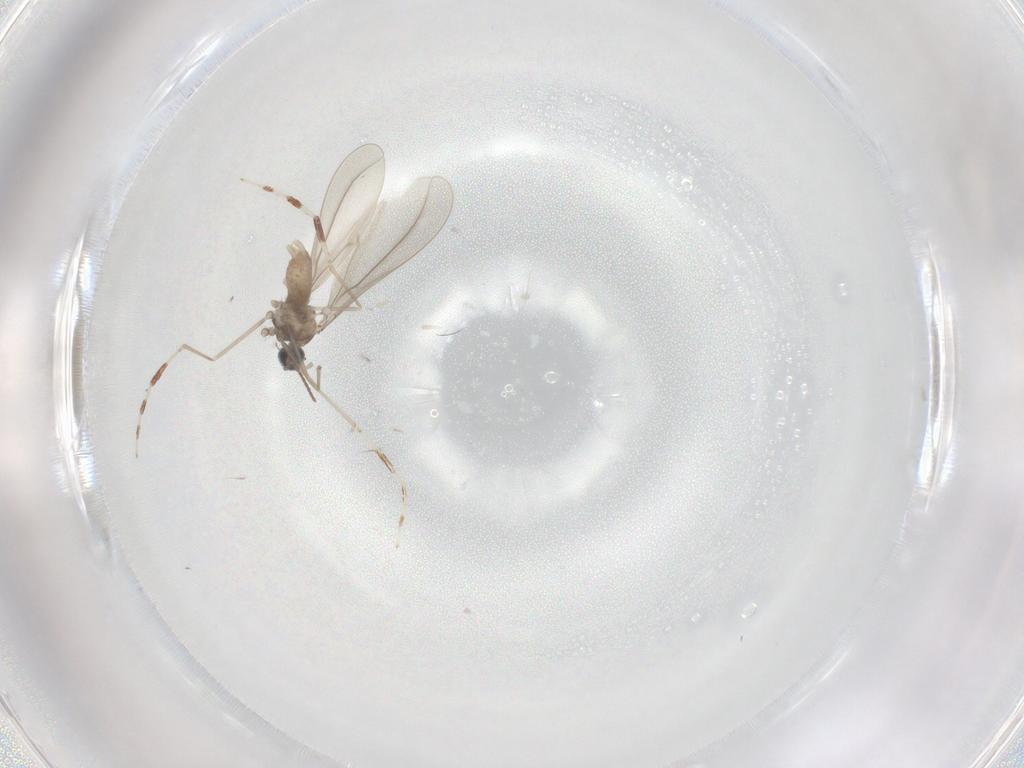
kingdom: Animalia
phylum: Arthropoda
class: Insecta
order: Diptera
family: Cecidomyiidae
